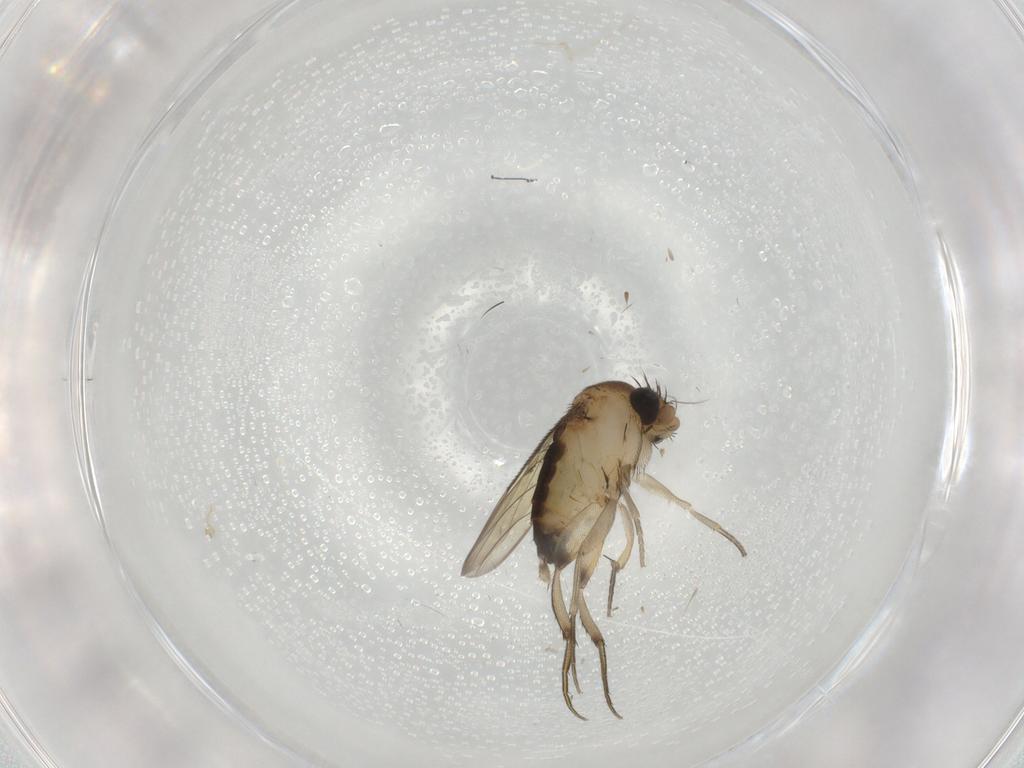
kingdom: Animalia
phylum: Arthropoda
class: Insecta
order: Diptera
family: Phoridae
